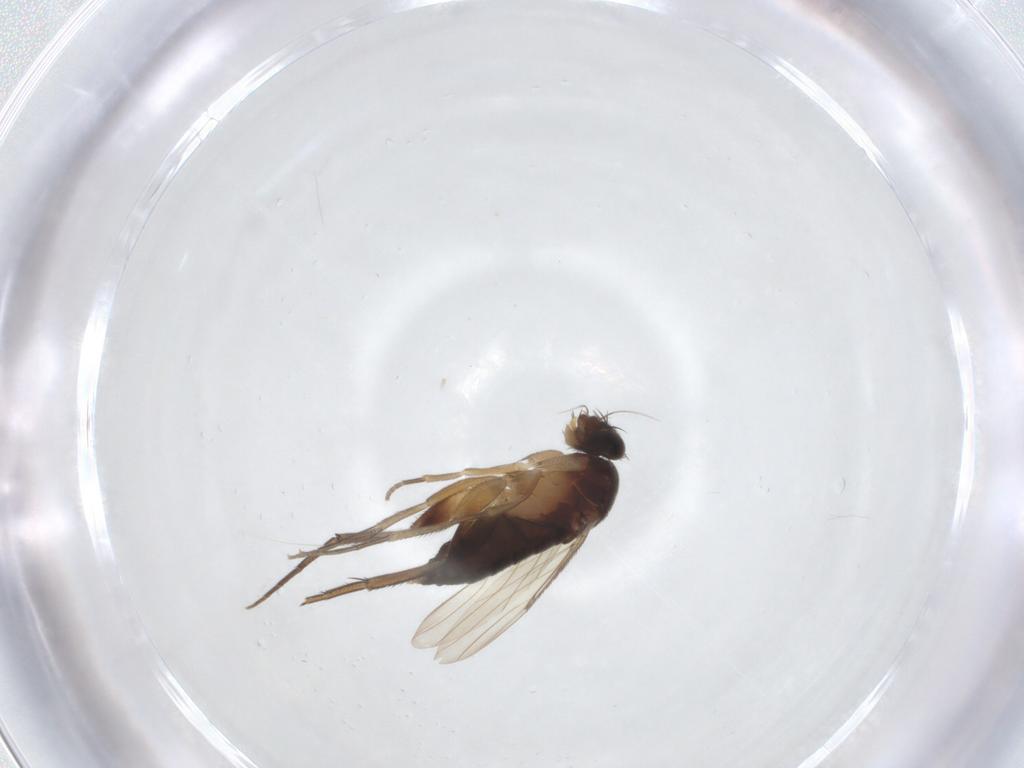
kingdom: Animalia
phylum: Arthropoda
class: Insecta
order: Diptera
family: Phoridae
